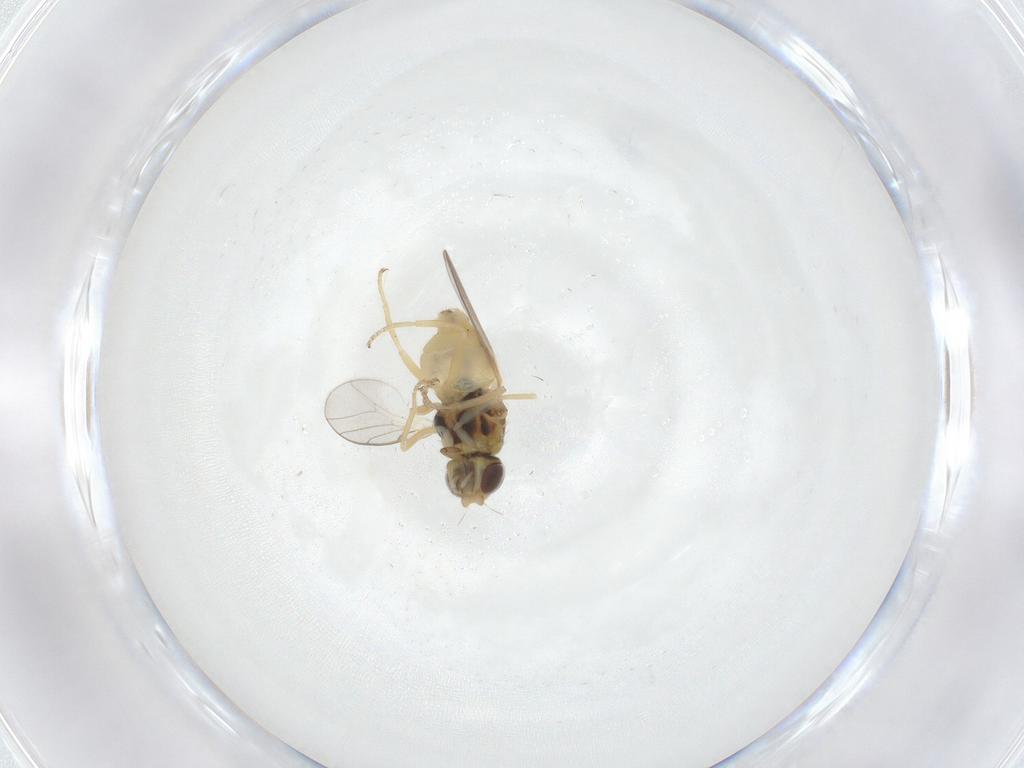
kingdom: Animalia
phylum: Arthropoda
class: Insecta
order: Diptera
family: Chloropidae
